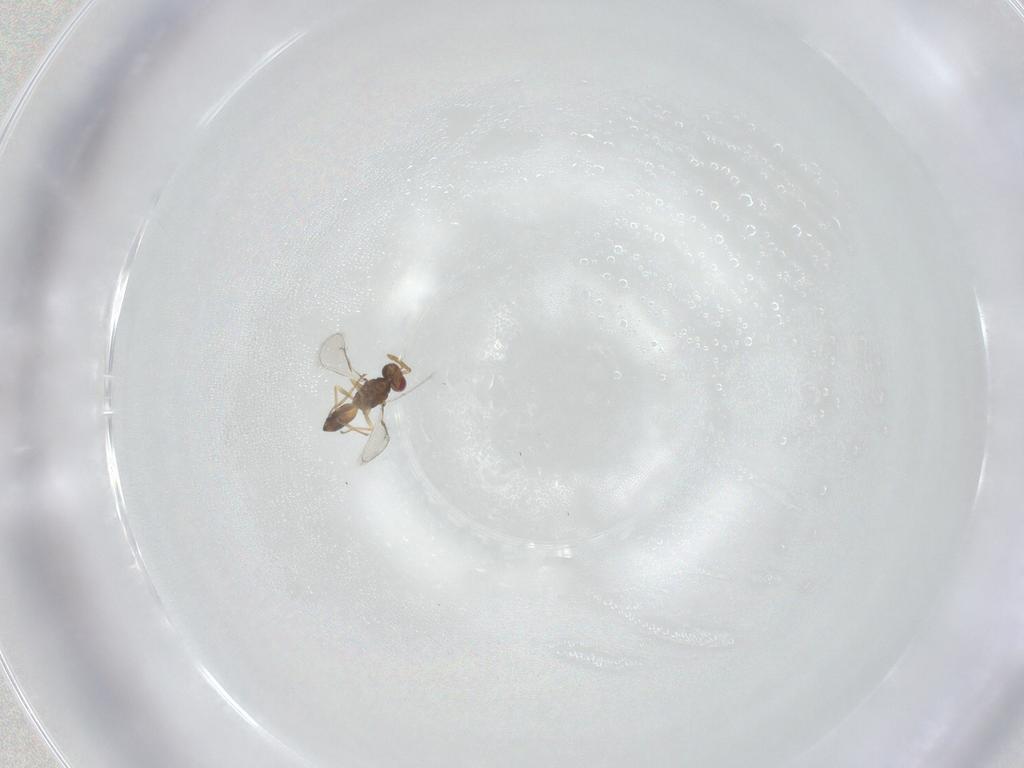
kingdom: Animalia
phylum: Arthropoda
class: Insecta
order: Hymenoptera
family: Eulophidae
